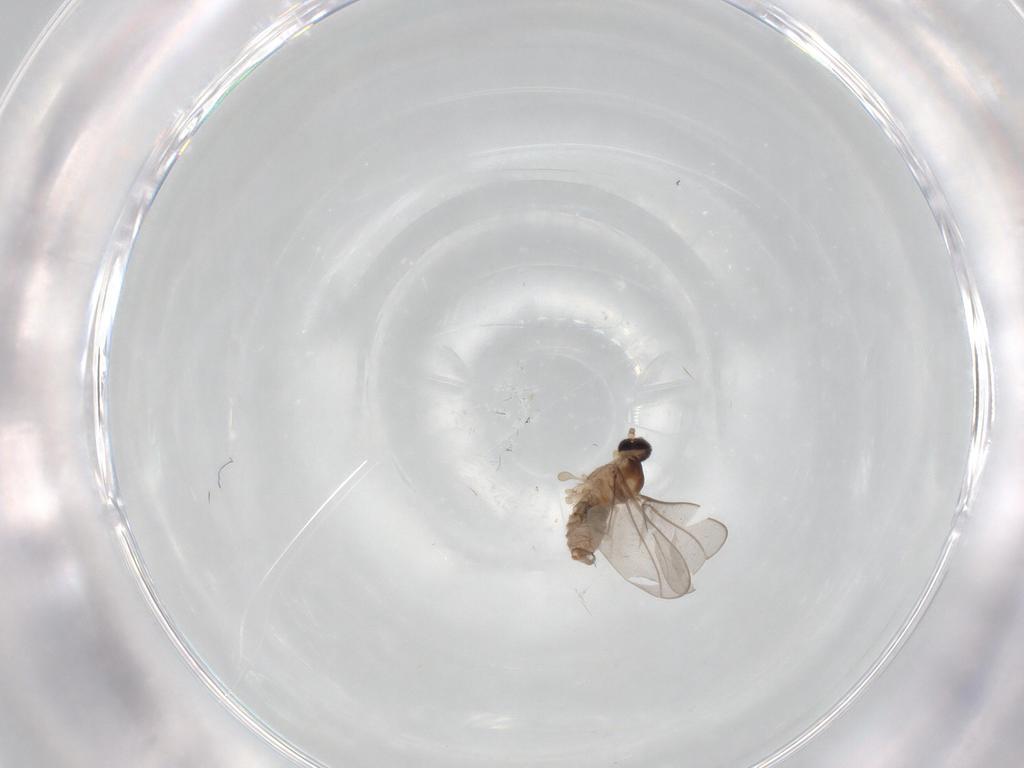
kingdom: Animalia
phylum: Arthropoda
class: Insecta
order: Diptera
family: Cecidomyiidae
